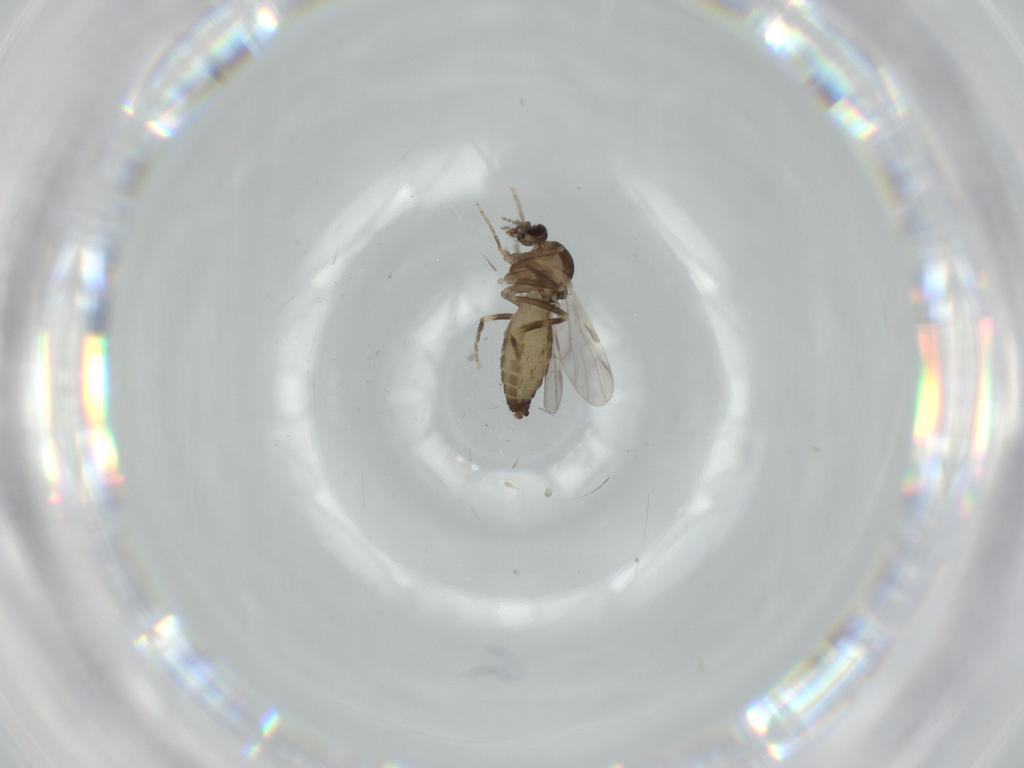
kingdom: Animalia
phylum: Arthropoda
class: Insecta
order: Diptera
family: Ceratopogonidae
